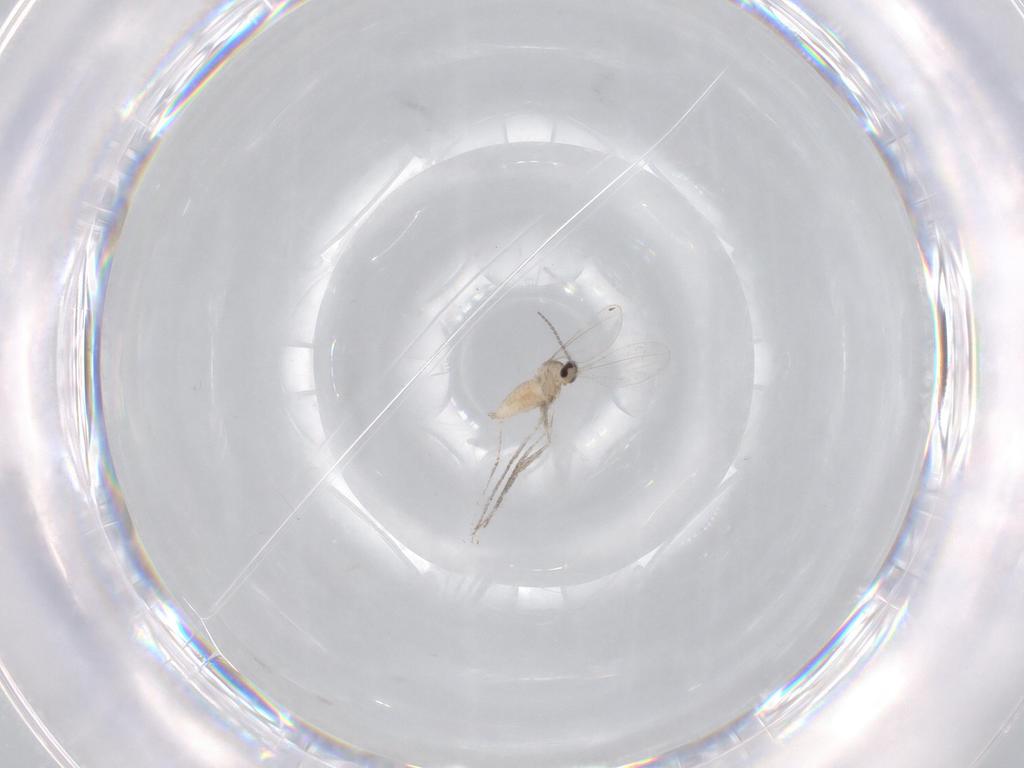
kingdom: Animalia
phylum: Arthropoda
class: Insecta
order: Diptera
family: Cecidomyiidae
